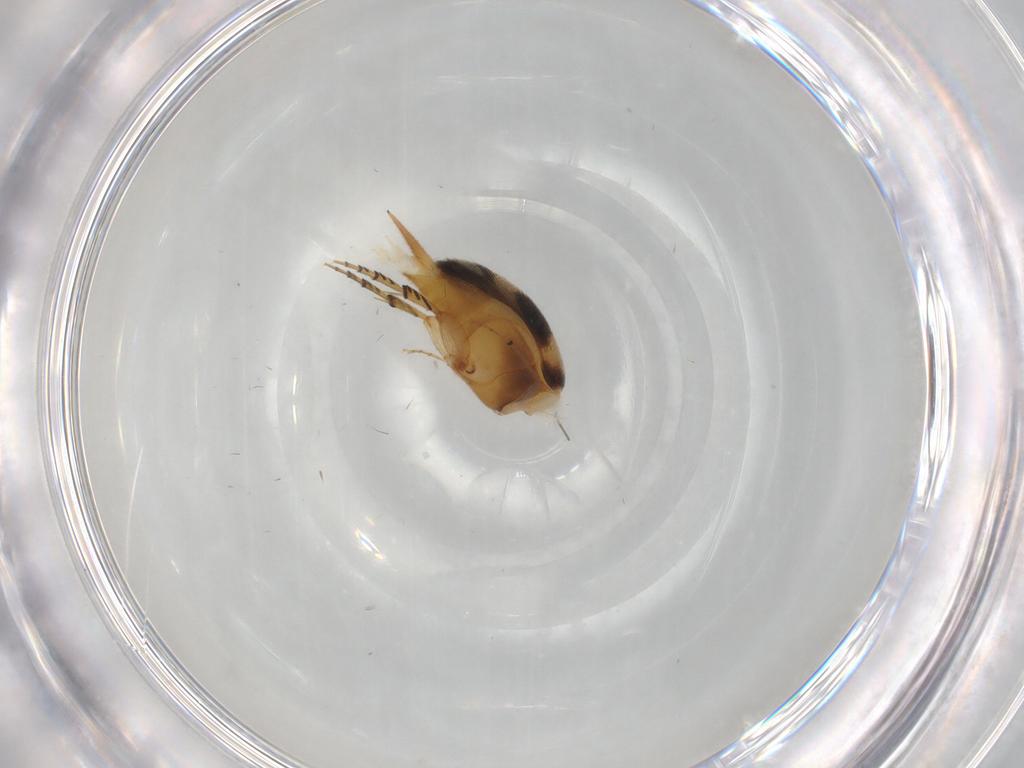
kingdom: Animalia
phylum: Arthropoda
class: Insecta
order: Coleoptera
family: Mordellidae
